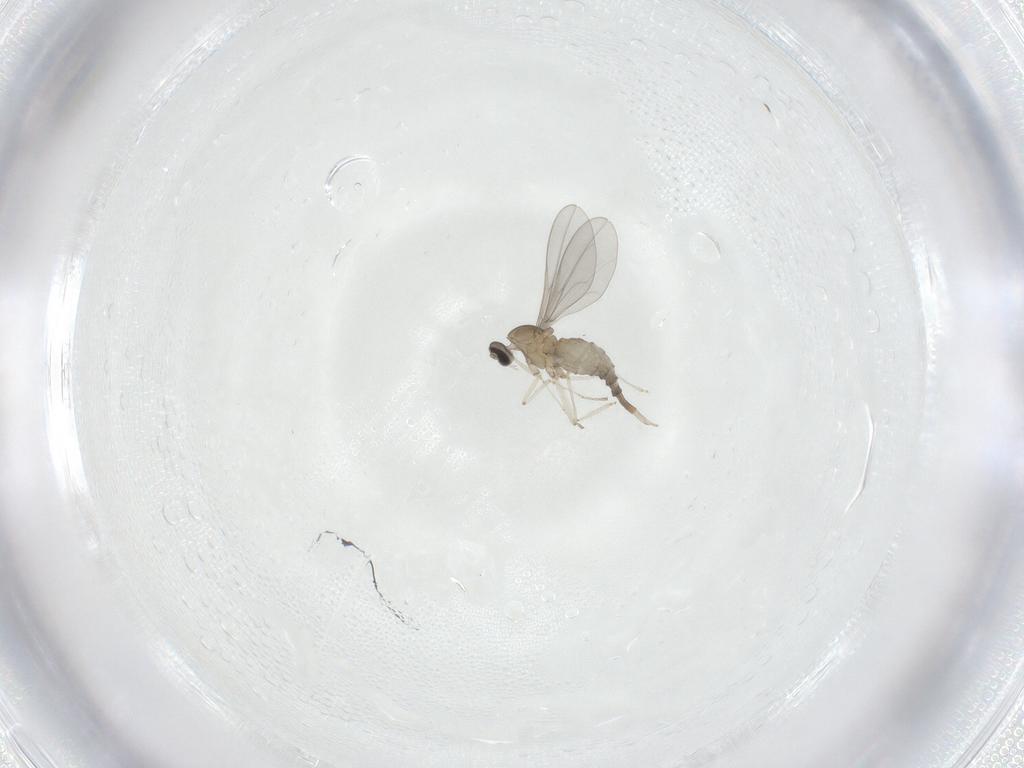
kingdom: Animalia
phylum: Arthropoda
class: Insecta
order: Diptera
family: Cecidomyiidae
